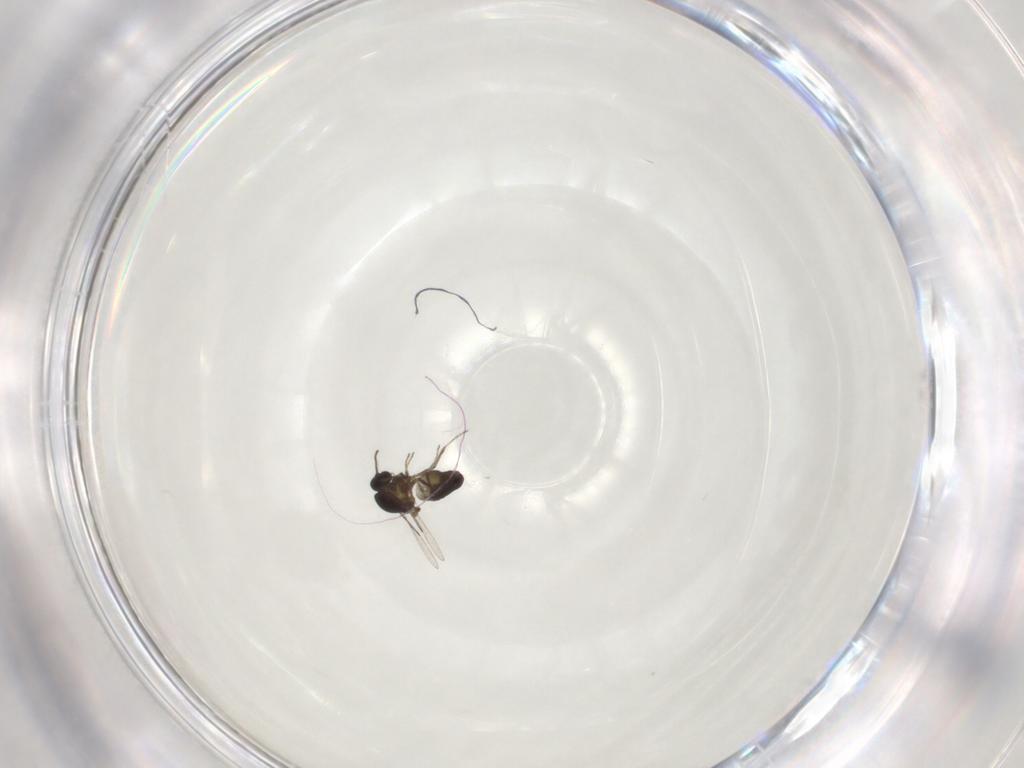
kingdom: Animalia
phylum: Arthropoda
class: Insecta
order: Diptera
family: Ceratopogonidae
